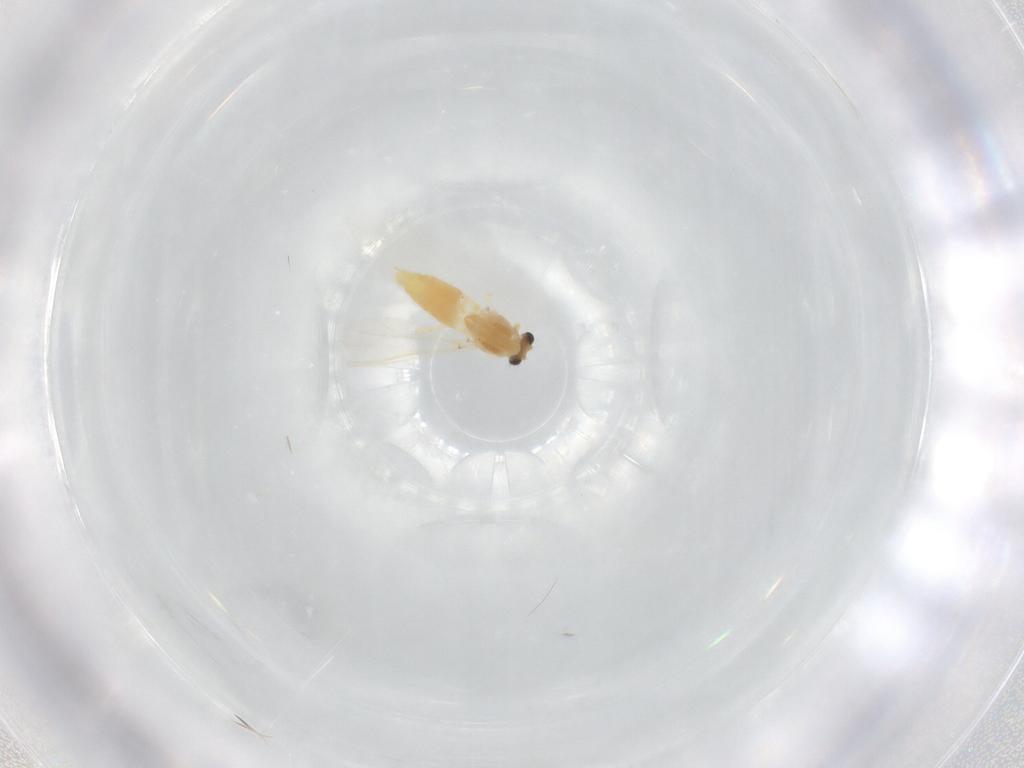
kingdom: Animalia
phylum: Arthropoda
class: Insecta
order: Diptera
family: Chironomidae
